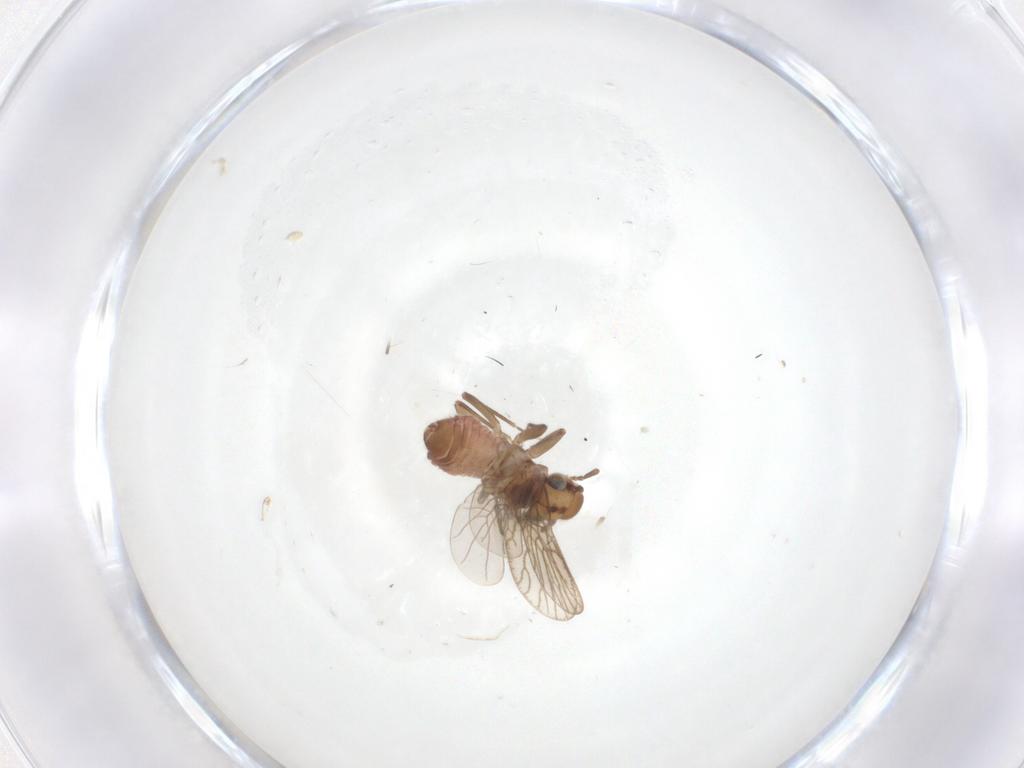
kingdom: Animalia
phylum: Arthropoda
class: Insecta
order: Psocodea
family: Psoquillidae
